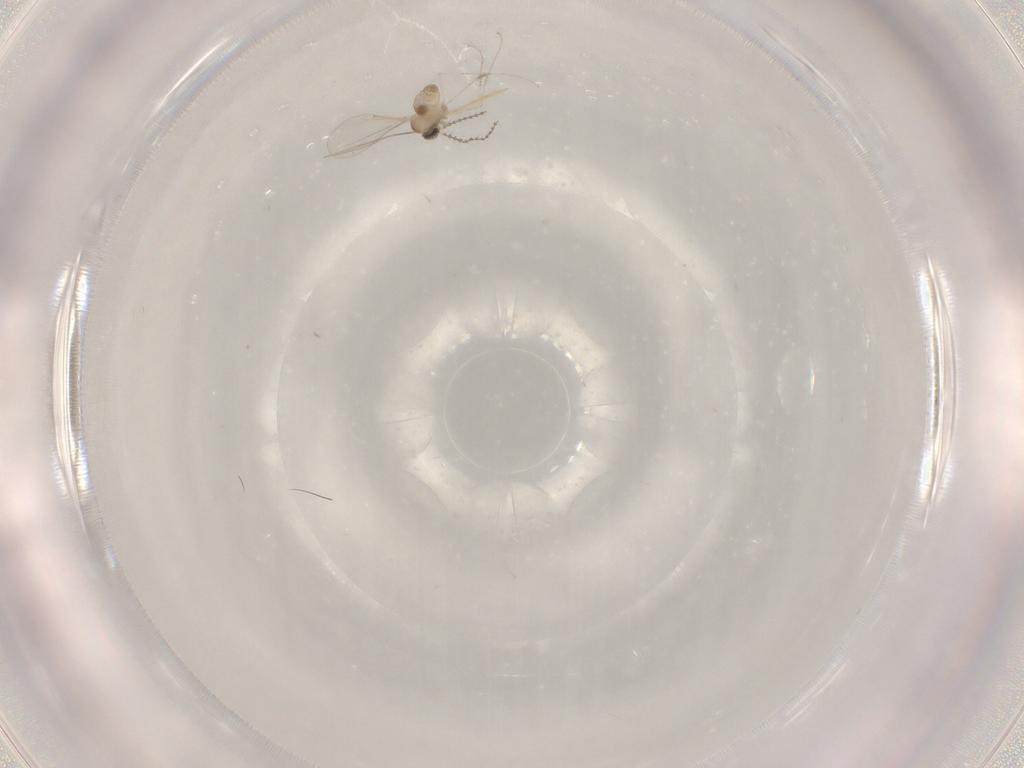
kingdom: Animalia
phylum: Arthropoda
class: Insecta
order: Diptera
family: Cecidomyiidae
